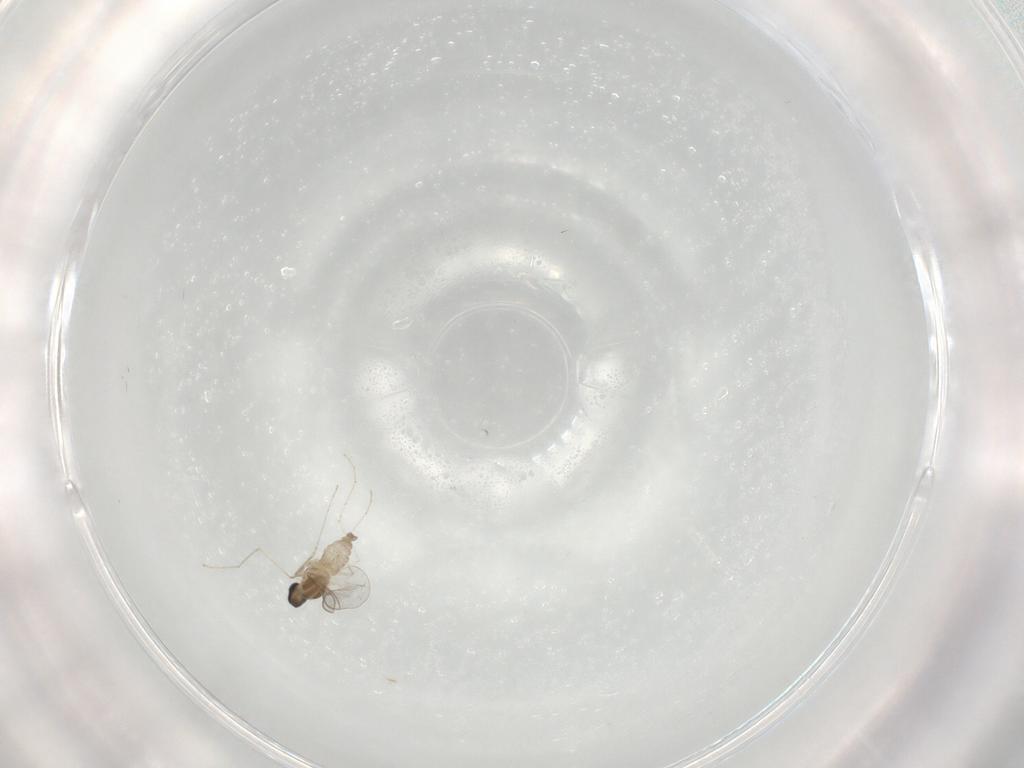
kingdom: Animalia
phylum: Arthropoda
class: Insecta
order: Diptera
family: Cecidomyiidae
